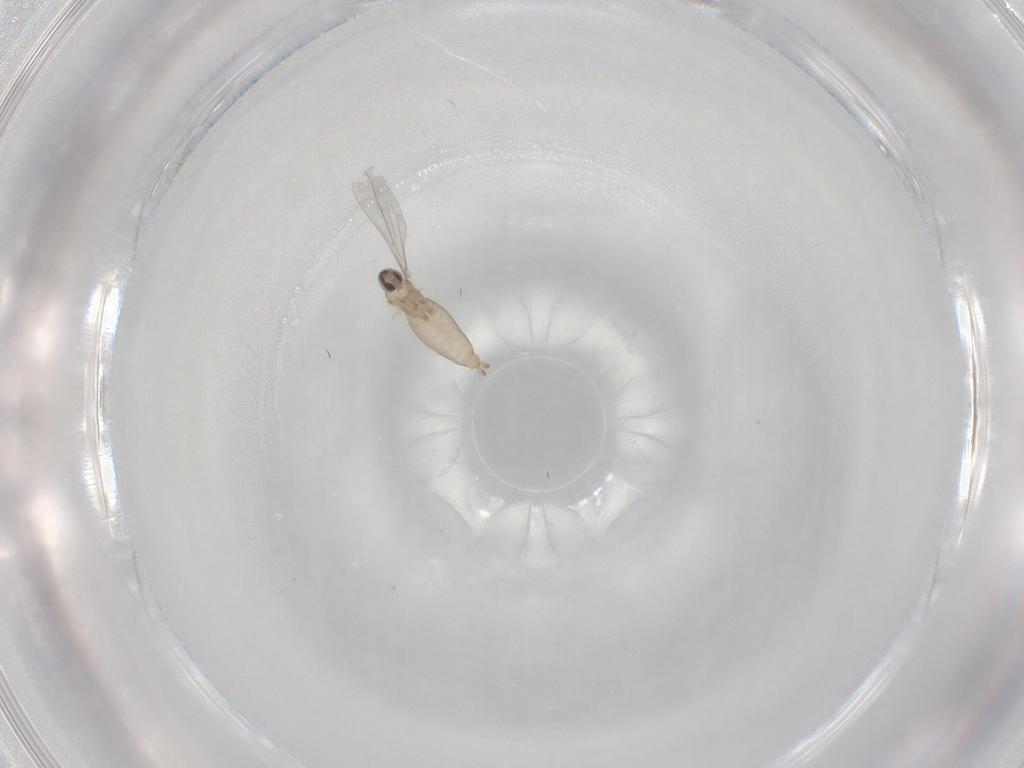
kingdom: Animalia
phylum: Arthropoda
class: Insecta
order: Diptera
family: Cecidomyiidae
